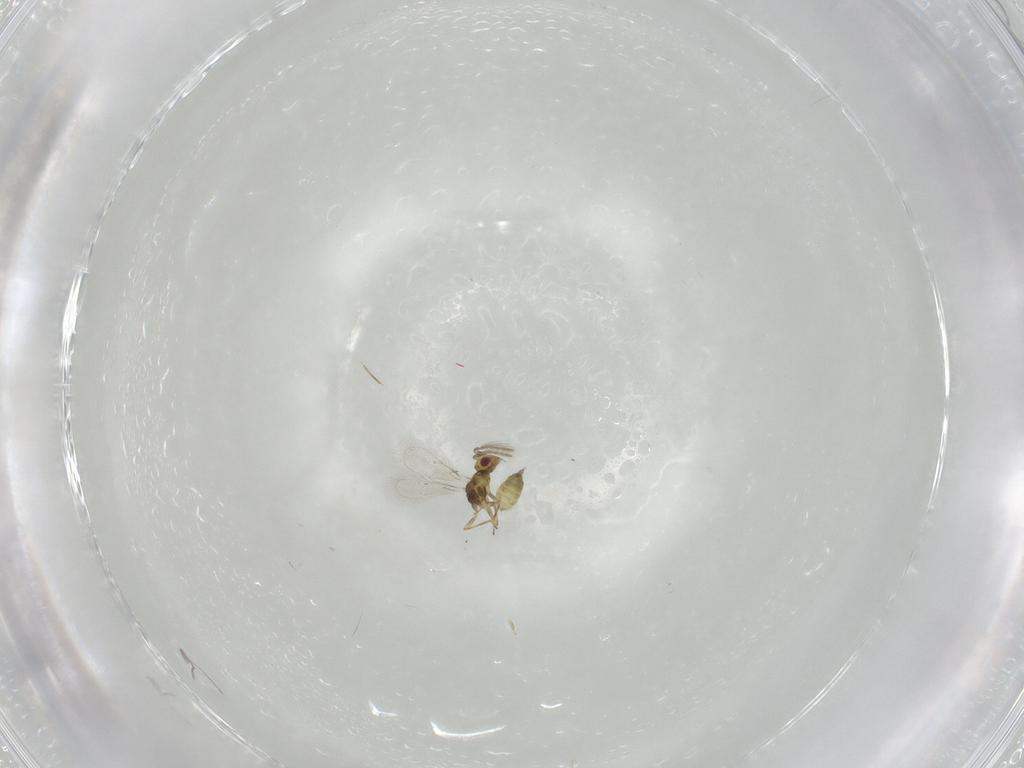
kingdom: Animalia
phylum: Arthropoda
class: Insecta
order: Hymenoptera
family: Eulophidae
